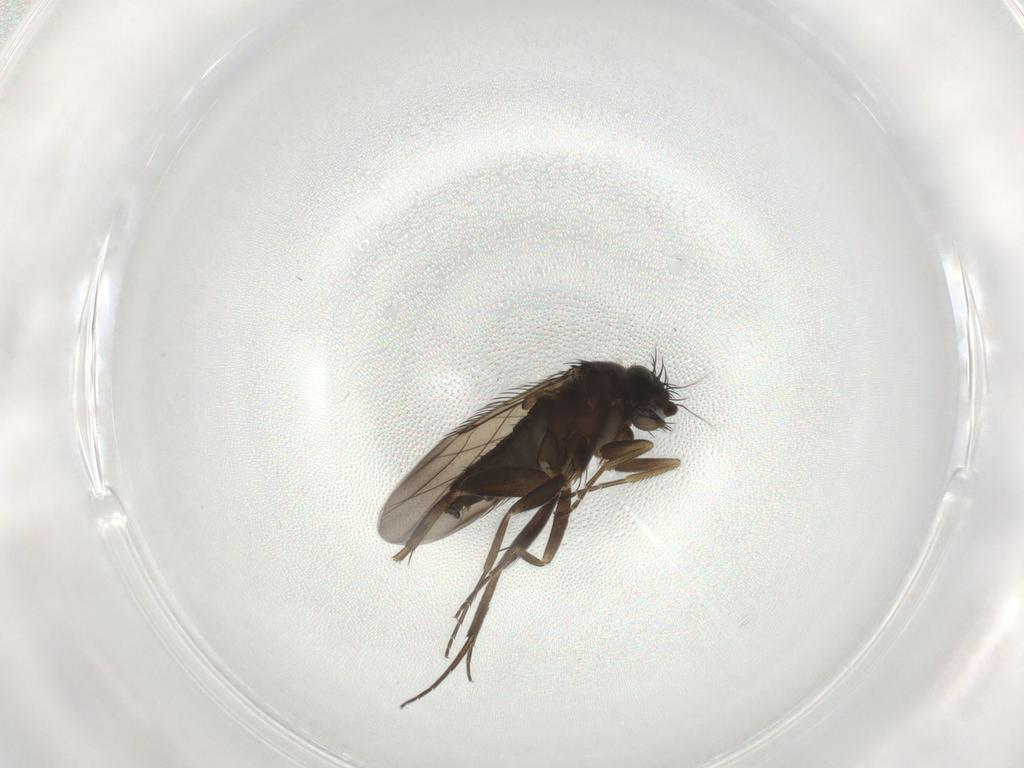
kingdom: Animalia
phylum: Arthropoda
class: Insecta
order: Diptera
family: Phoridae
